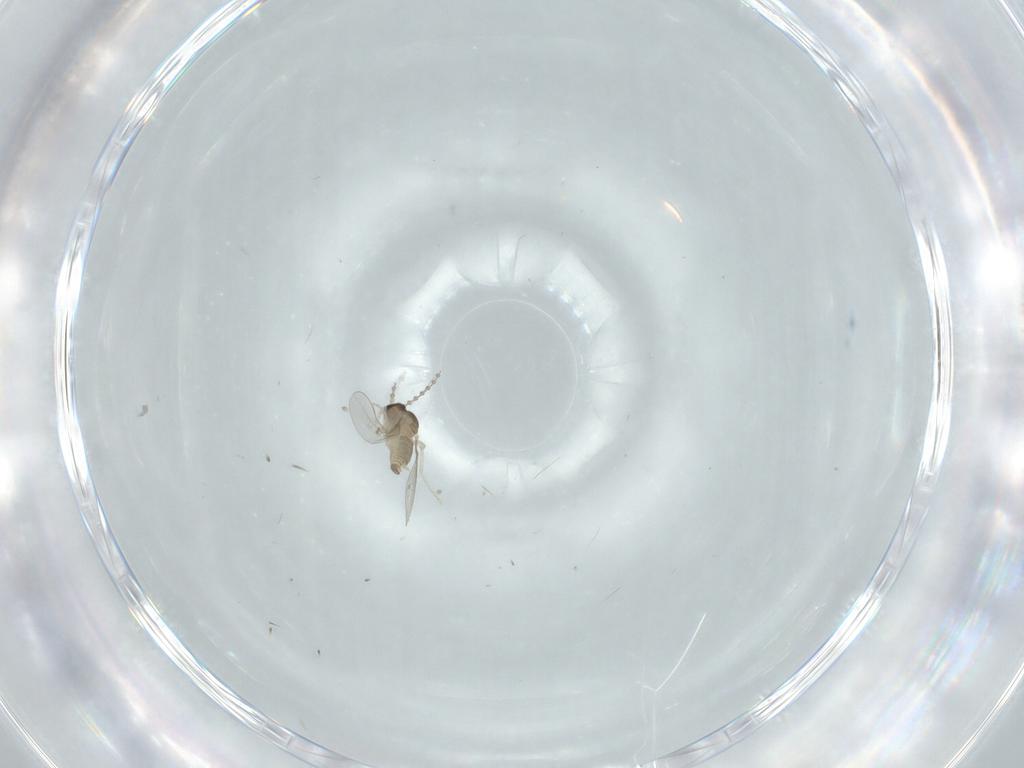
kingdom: Animalia
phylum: Arthropoda
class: Insecta
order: Diptera
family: Cecidomyiidae
